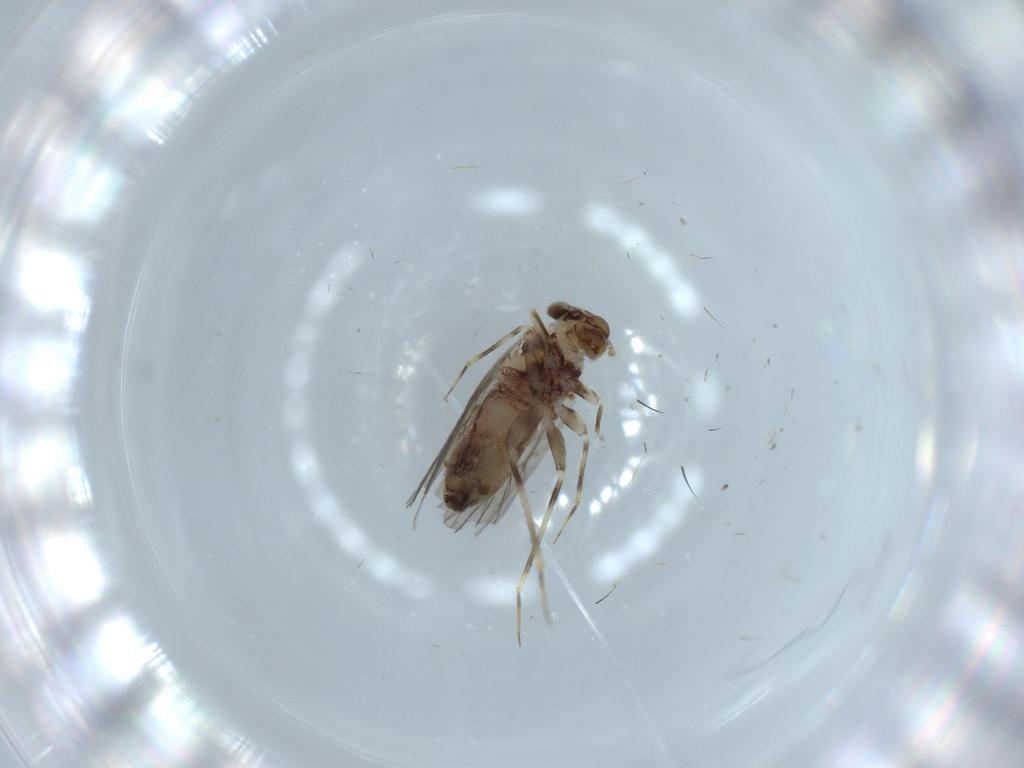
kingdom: Animalia
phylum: Arthropoda
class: Insecta
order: Psocodea
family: Lepidopsocidae
